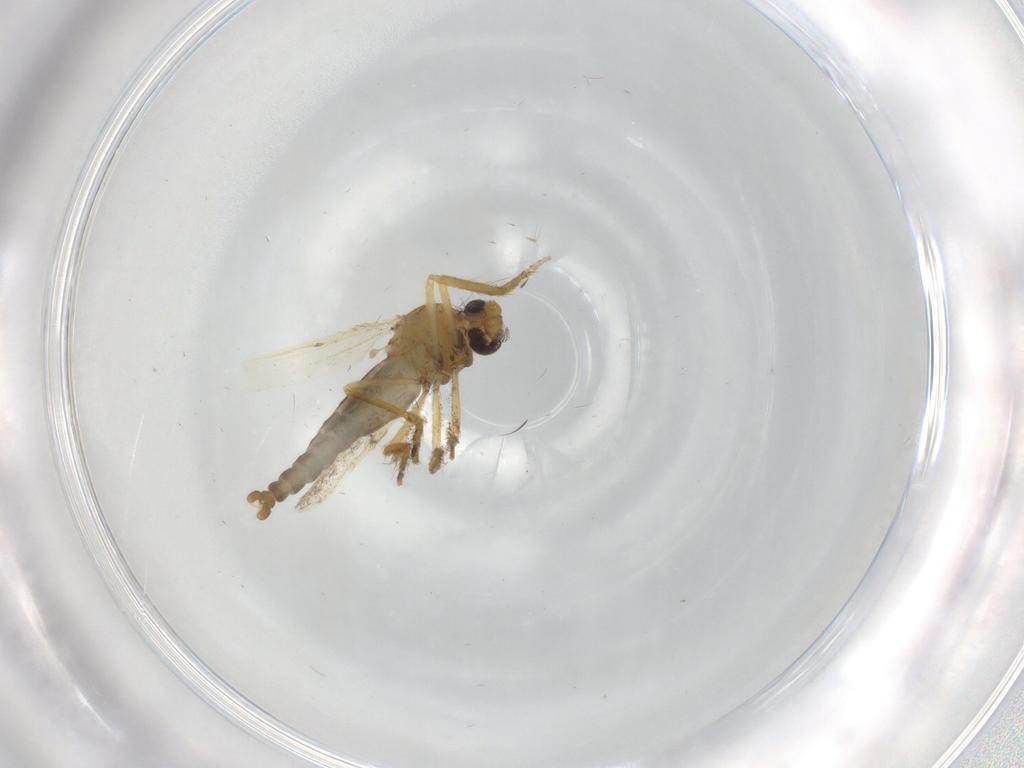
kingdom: Animalia
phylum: Arthropoda
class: Insecta
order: Diptera
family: Cecidomyiidae
